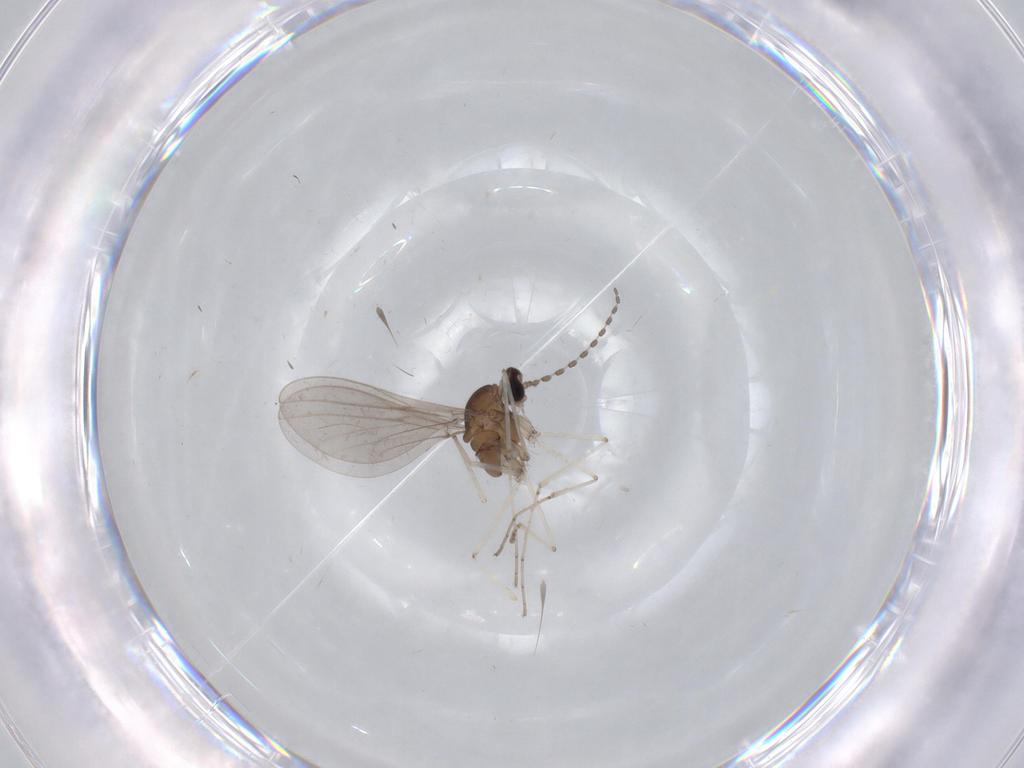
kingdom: Animalia
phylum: Arthropoda
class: Insecta
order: Diptera
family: Cecidomyiidae
